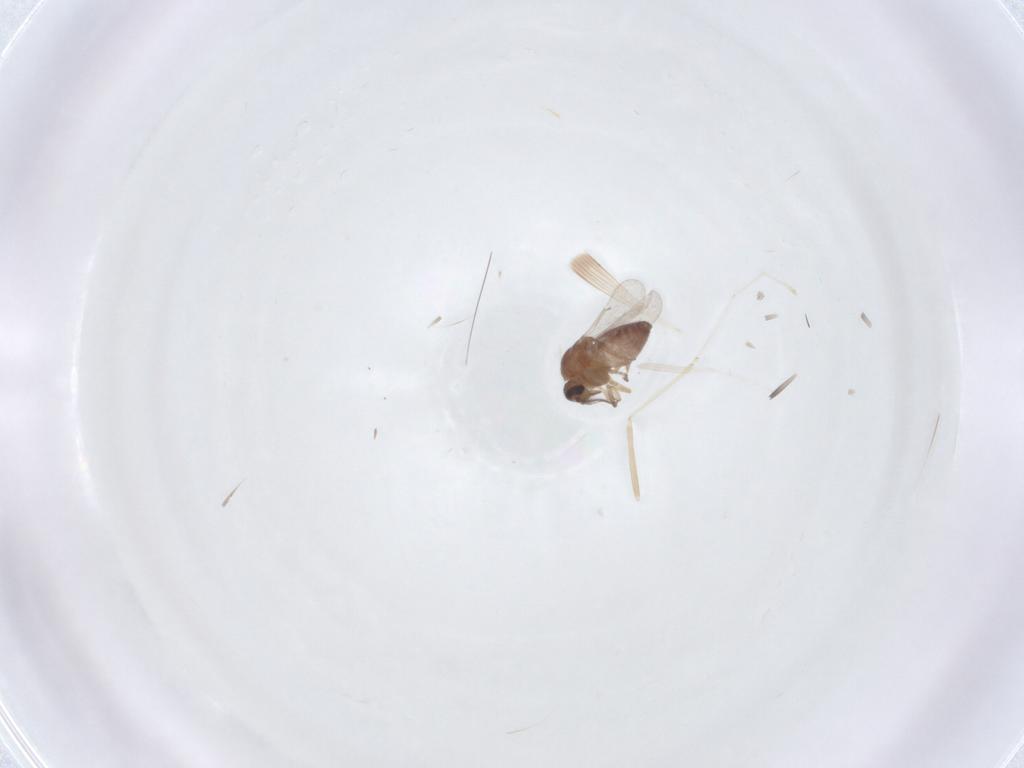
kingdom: Animalia
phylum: Arthropoda
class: Insecta
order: Diptera
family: Ceratopogonidae
